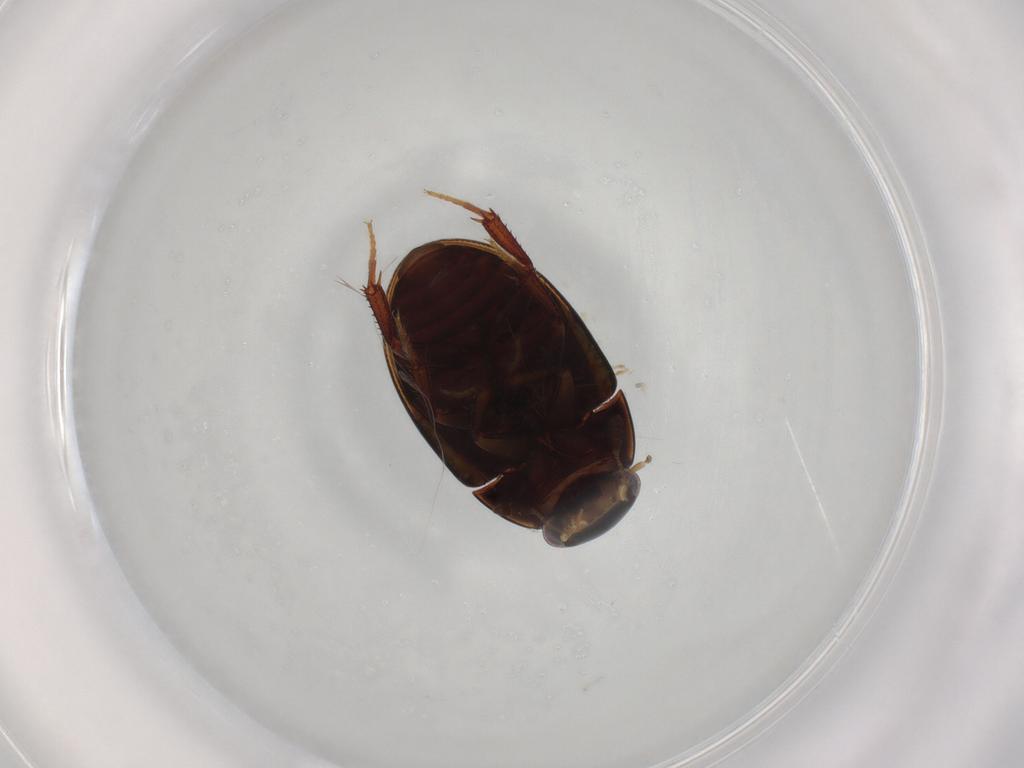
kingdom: Animalia
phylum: Arthropoda
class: Insecta
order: Coleoptera
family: Hydrophilidae
